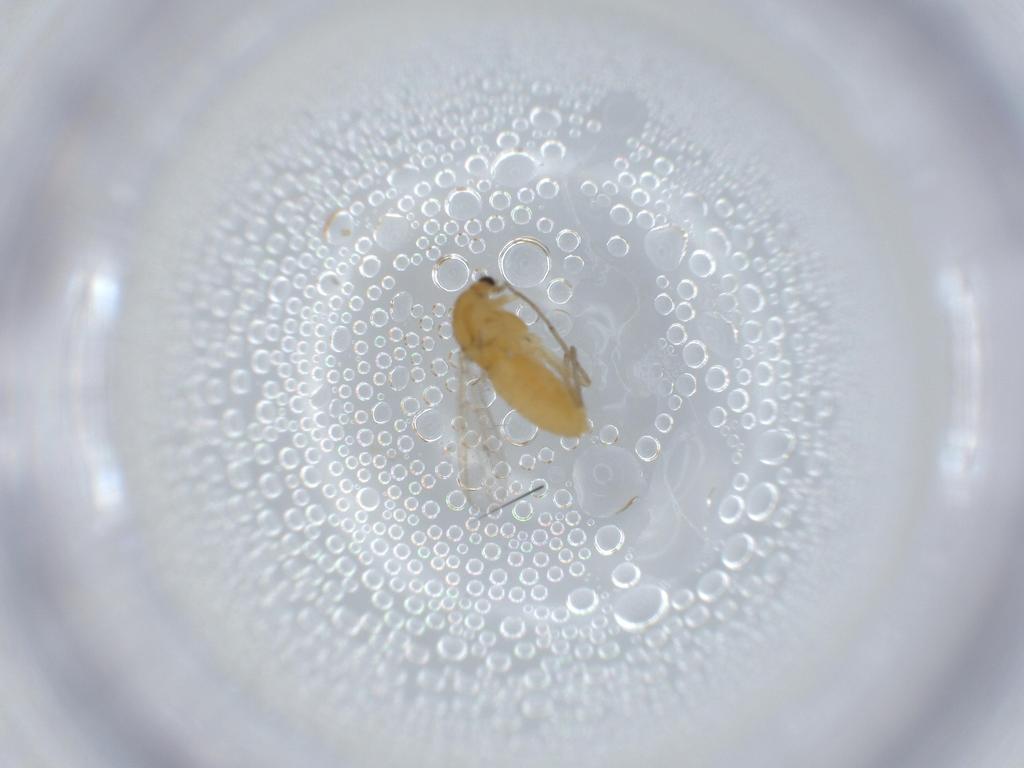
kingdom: Animalia
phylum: Arthropoda
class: Insecta
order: Diptera
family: Chironomidae
